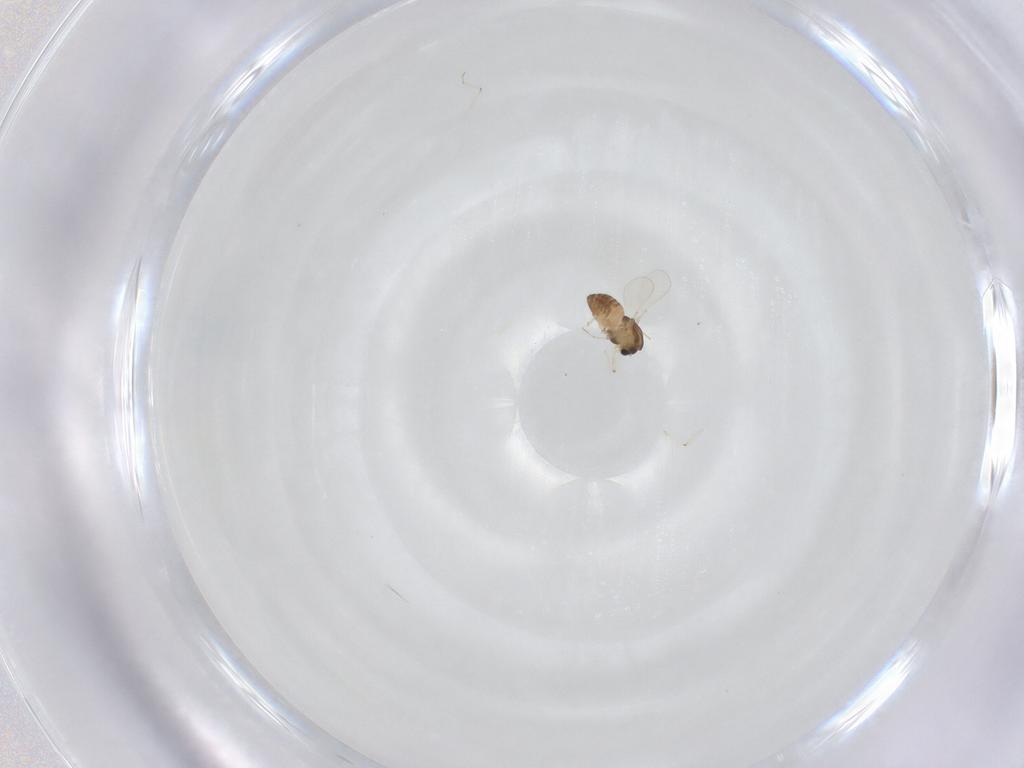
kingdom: Animalia
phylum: Arthropoda
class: Insecta
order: Diptera
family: Chironomidae
